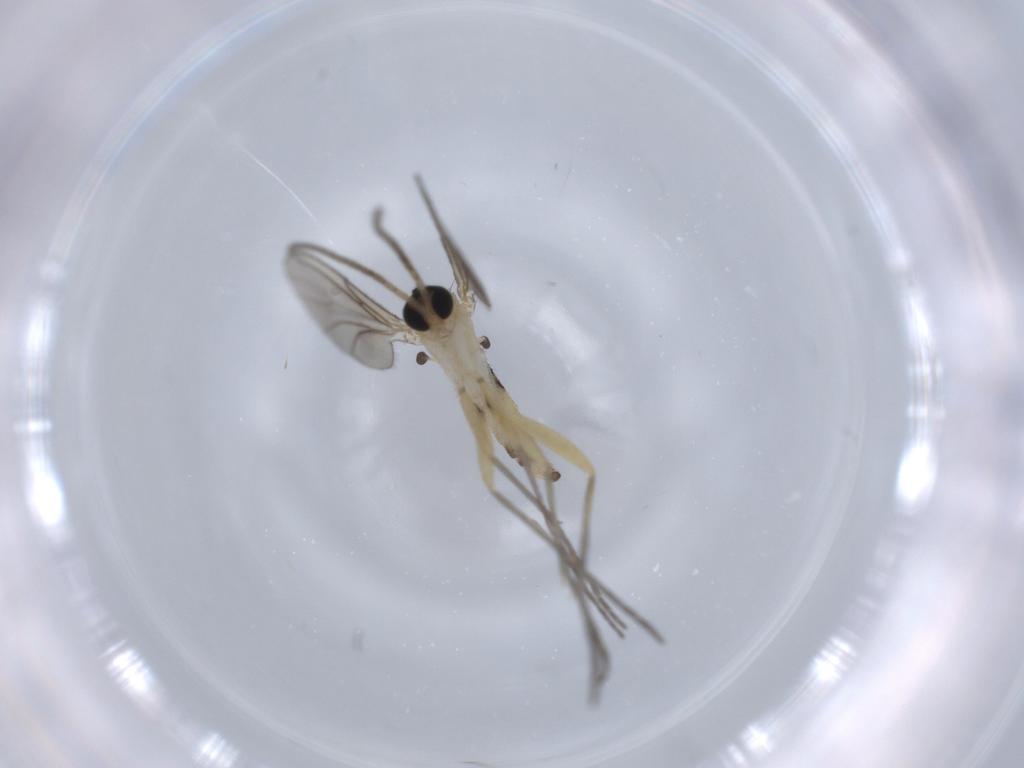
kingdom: Animalia
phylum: Arthropoda
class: Insecta
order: Diptera
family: Sciaridae
